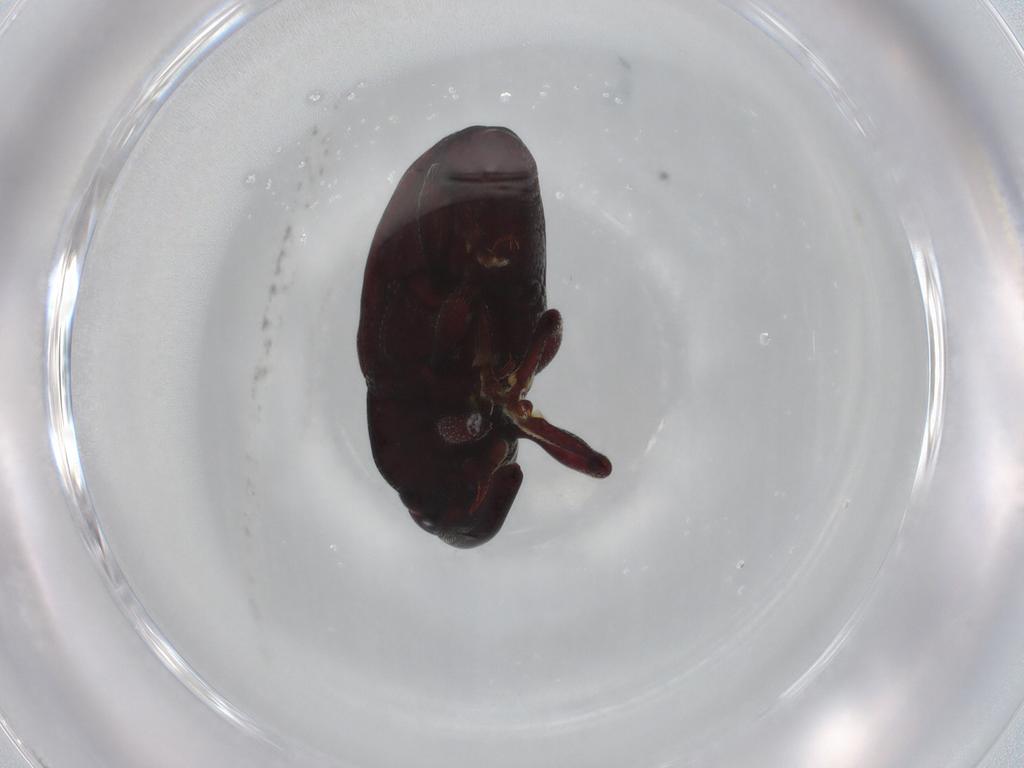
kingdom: Animalia
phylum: Arthropoda
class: Insecta
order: Coleoptera
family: Curculionidae
